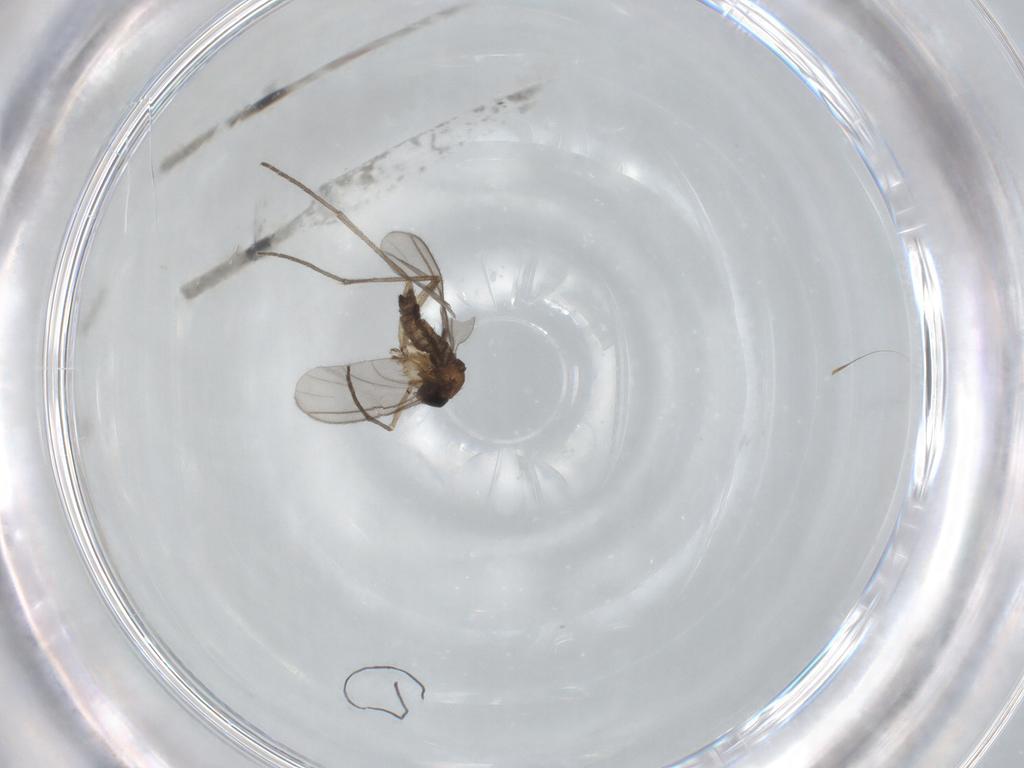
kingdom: Animalia
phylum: Arthropoda
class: Insecta
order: Diptera
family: Sciaridae
